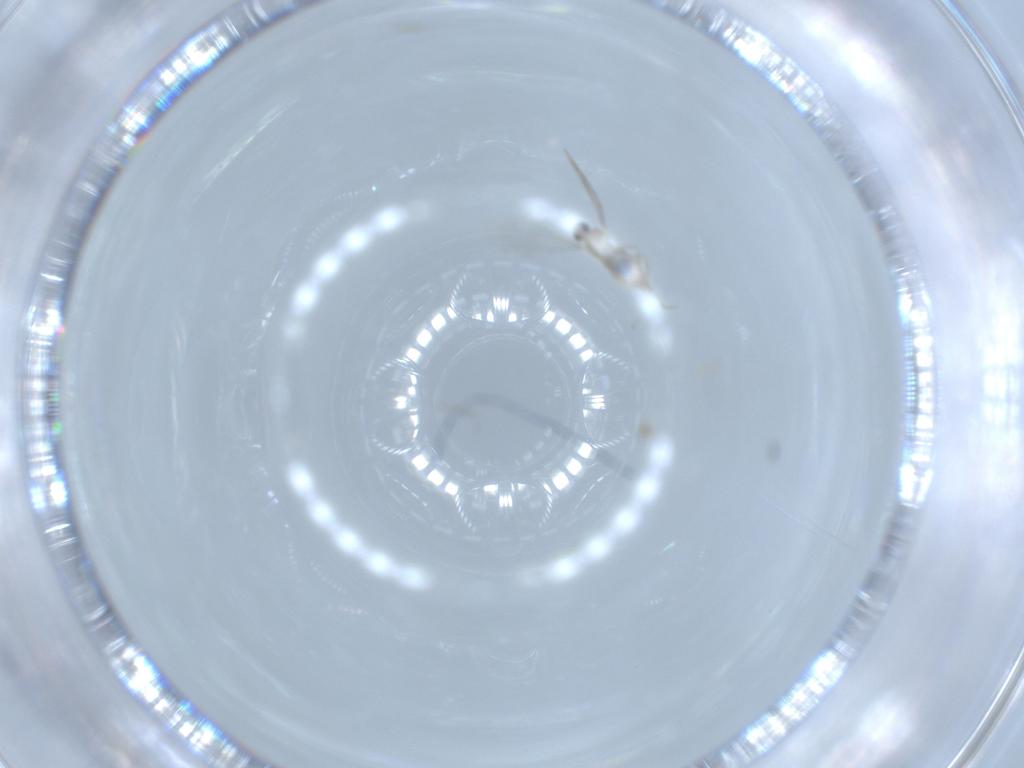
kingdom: Animalia
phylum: Arthropoda
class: Insecta
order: Diptera
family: Cecidomyiidae
